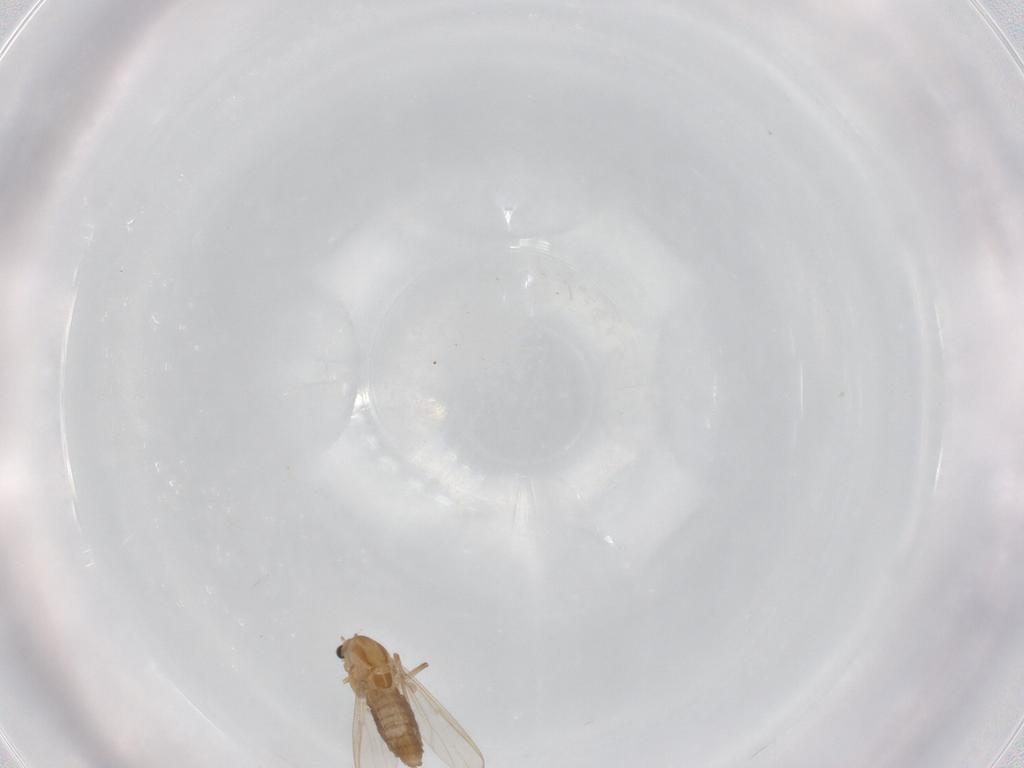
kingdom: Animalia
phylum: Arthropoda
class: Insecta
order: Diptera
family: Chironomidae
